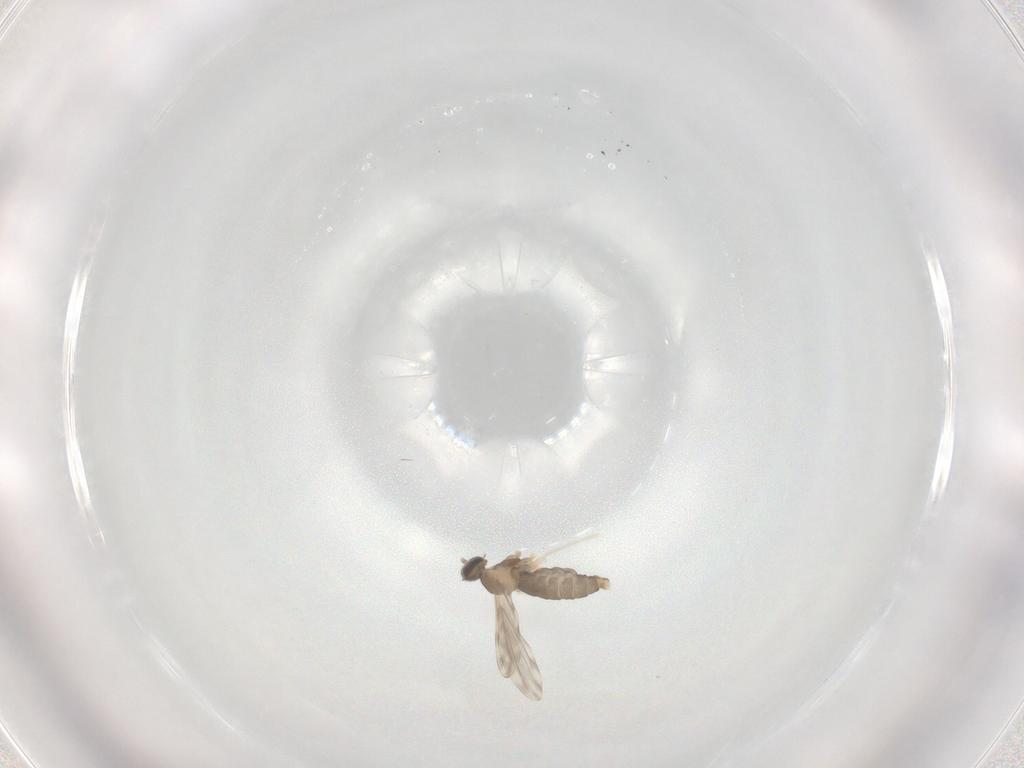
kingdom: Animalia
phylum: Arthropoda
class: Insecta
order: Diptera
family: Cecidomyiidae
